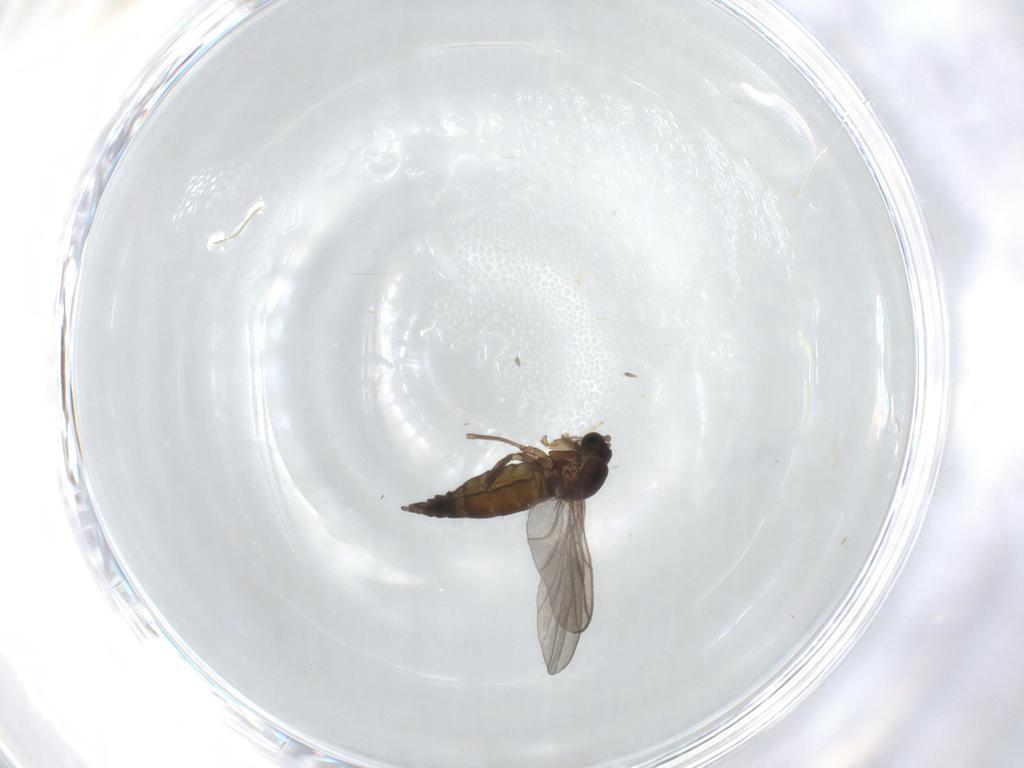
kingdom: Animalia
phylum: Arthropoda
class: Insecta
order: Diptera
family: Sciaridae
